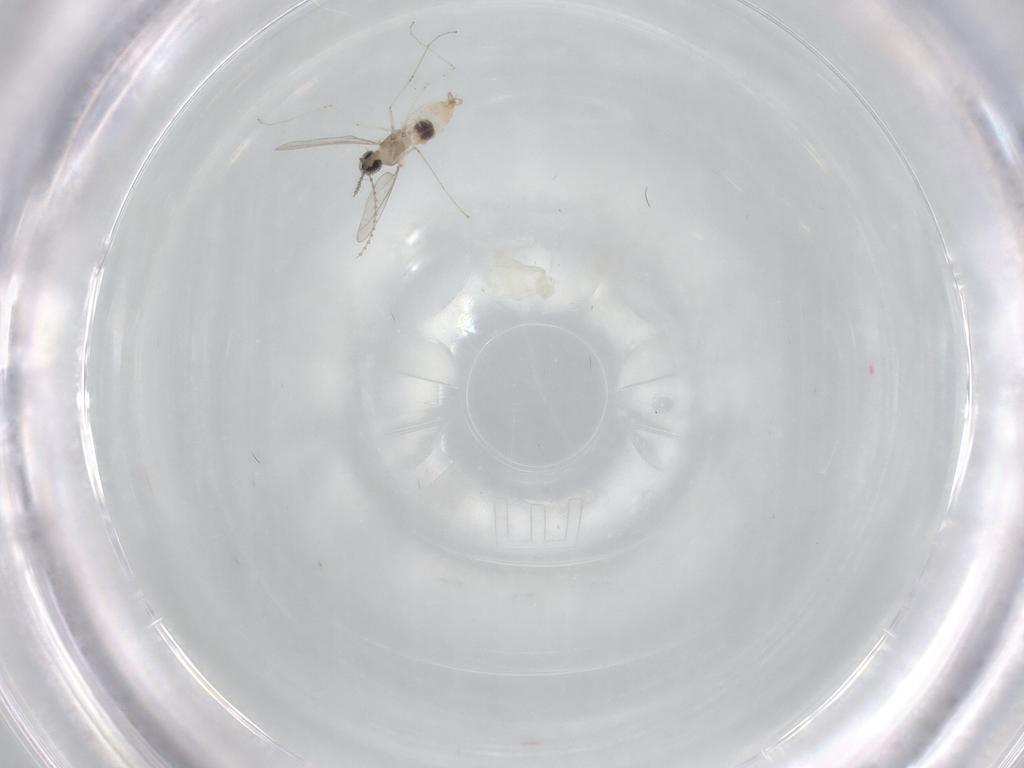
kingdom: Animalia
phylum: Arthropoda
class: Insecta
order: Diptera
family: Cecidomyiidae
